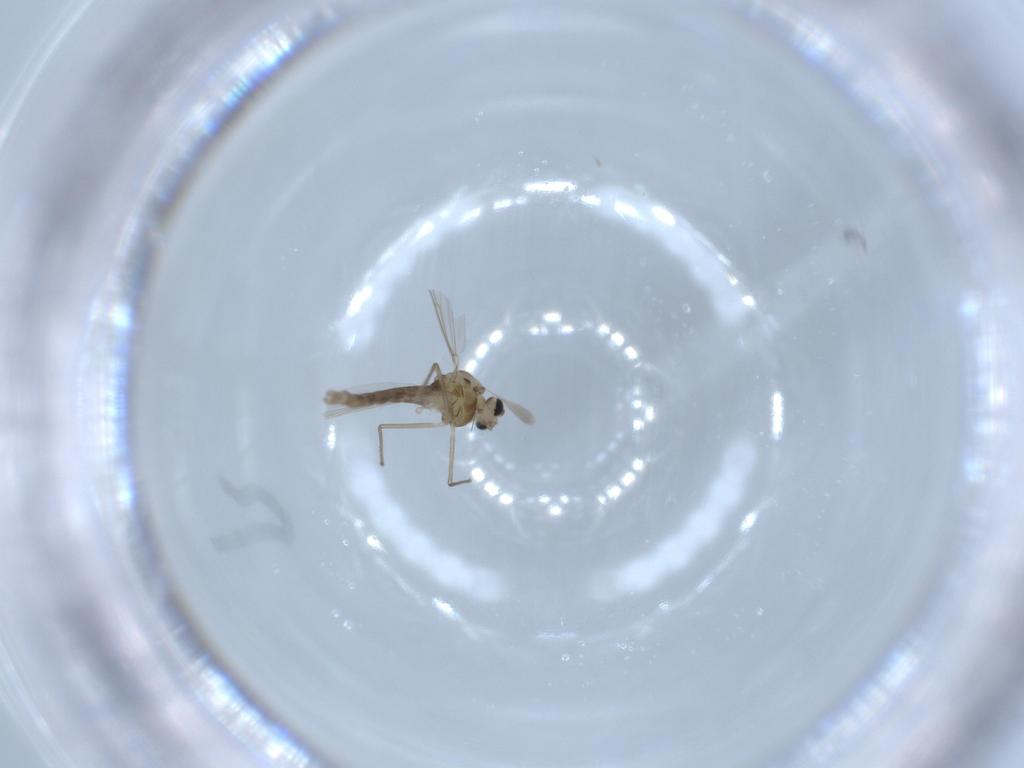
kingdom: Animalia
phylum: Arthropoda
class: Insecta
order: Diptera
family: Chironomidae
